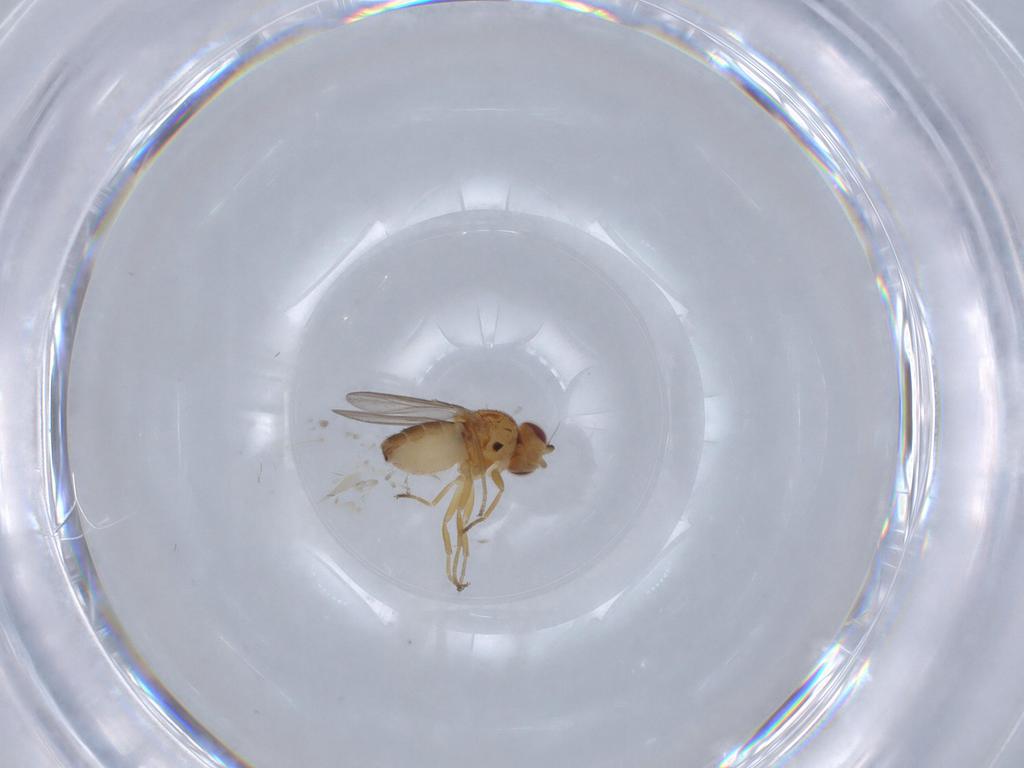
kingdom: Animalia
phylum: Arthropoda
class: Insecta
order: Diptera
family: Chloropidae
